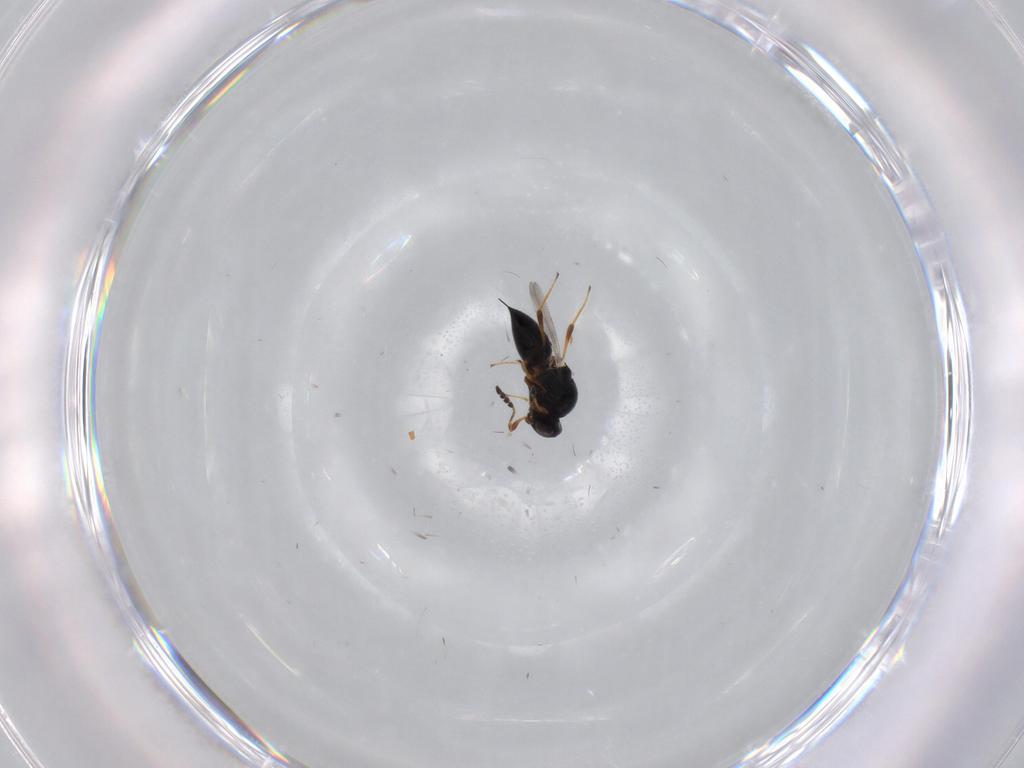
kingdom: Animalia
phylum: Arthropoda
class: Insecta
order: Hymenoptera
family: Platygastridae
